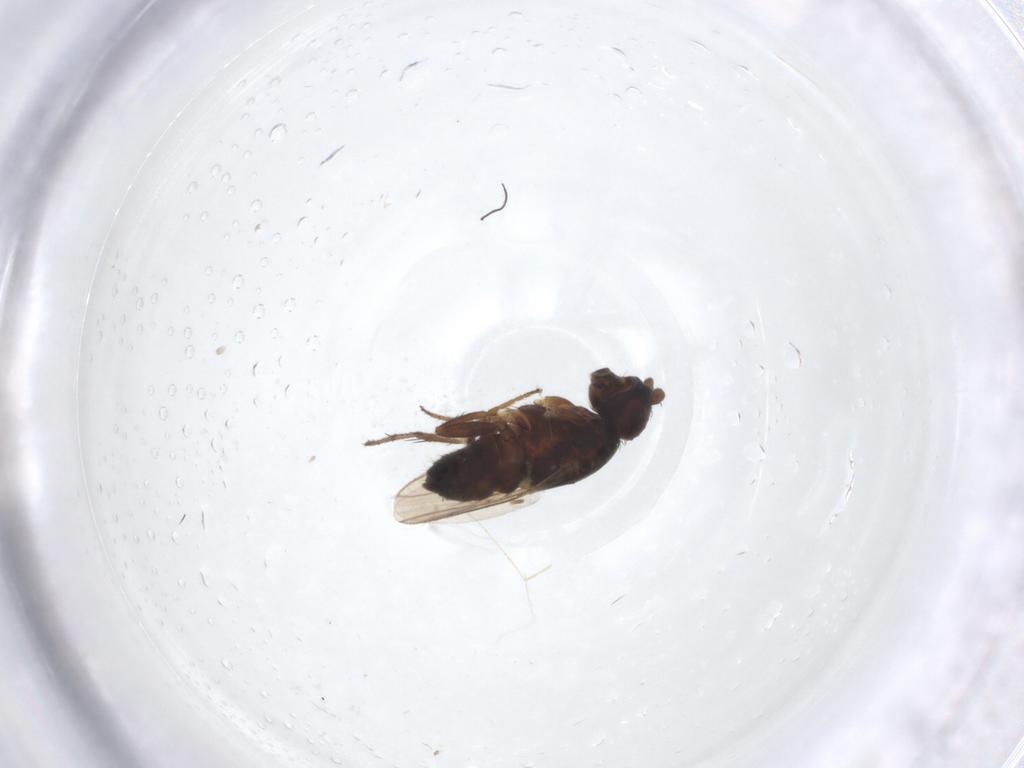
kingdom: Animalia
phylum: Arthropoda
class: Insecta
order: Diptera
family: Sphaeroceridae
